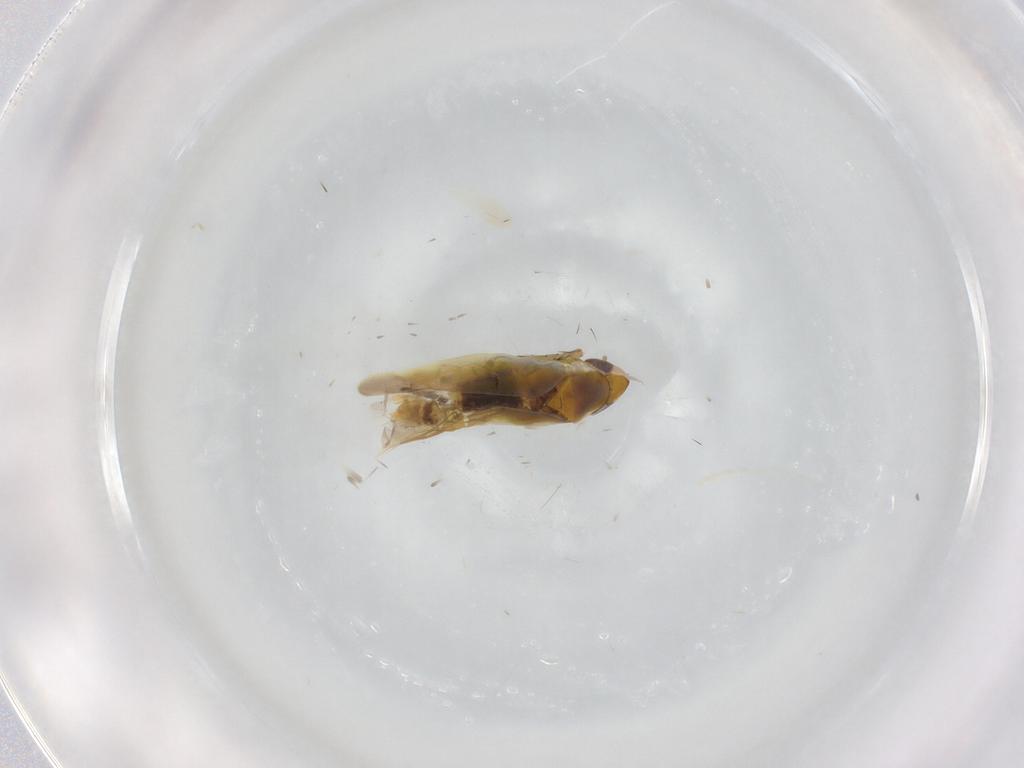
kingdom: Animalia
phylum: Arthropoda
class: Insecta
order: Hemiptera
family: Cicadellidae
